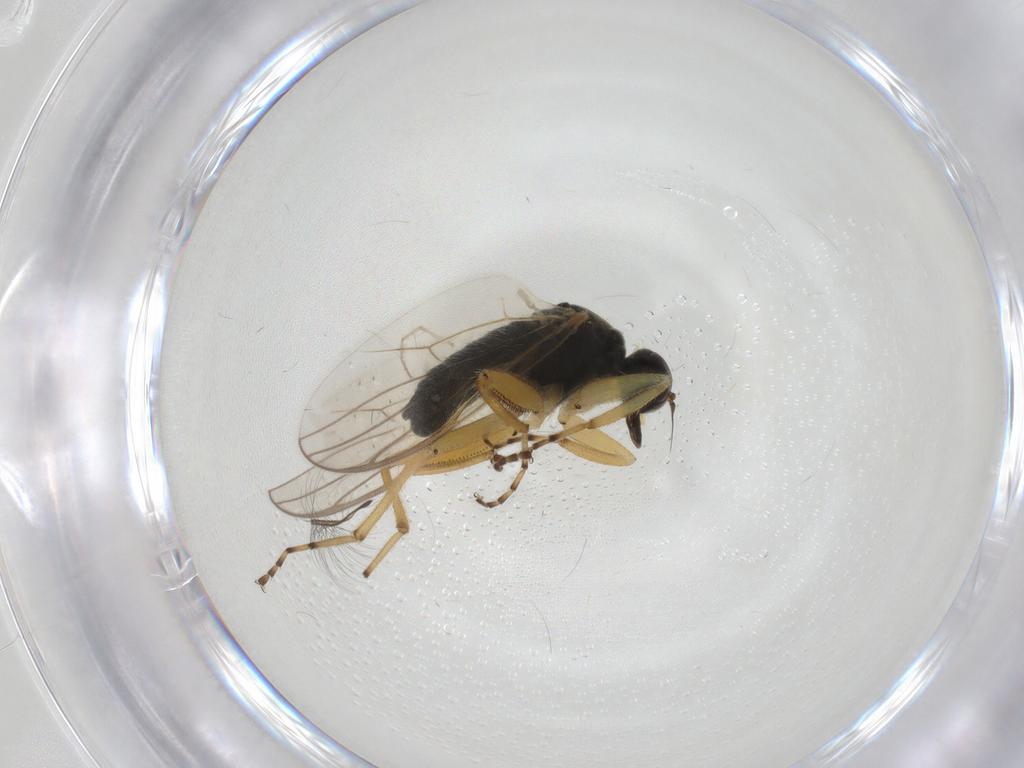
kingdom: Animalia
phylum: Arthropoda
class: Insecta
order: Diptera
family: Hybotidae
